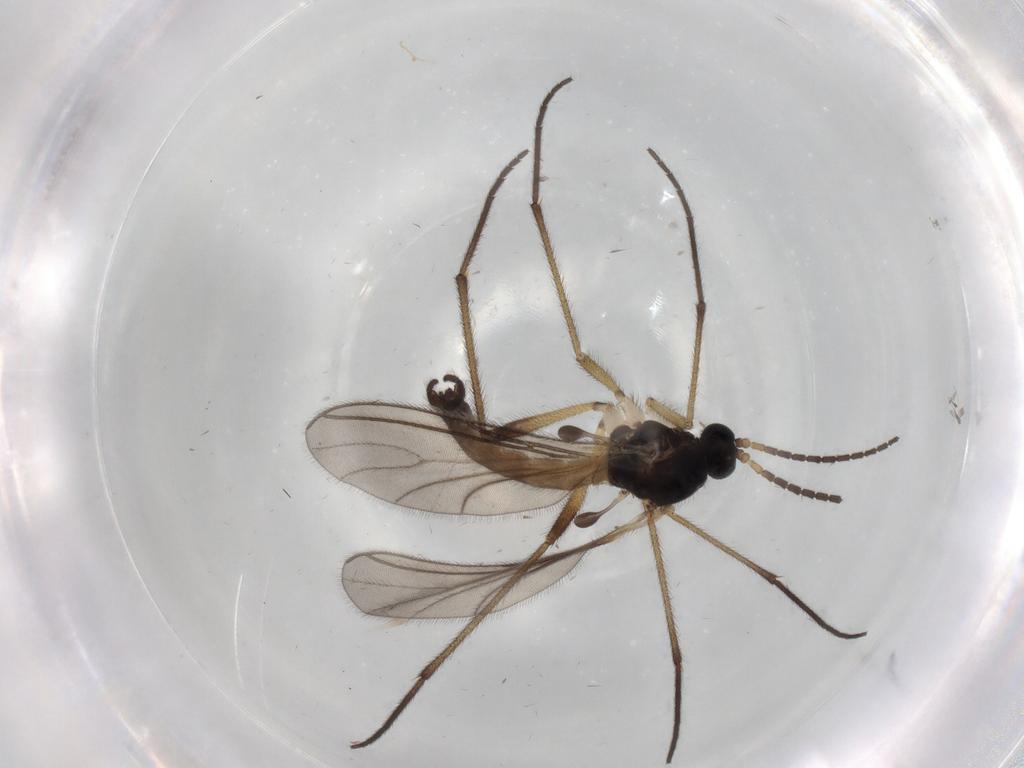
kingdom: Animalia
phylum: Arthropoda
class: Insecta
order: Diptera
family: Sciaridae
